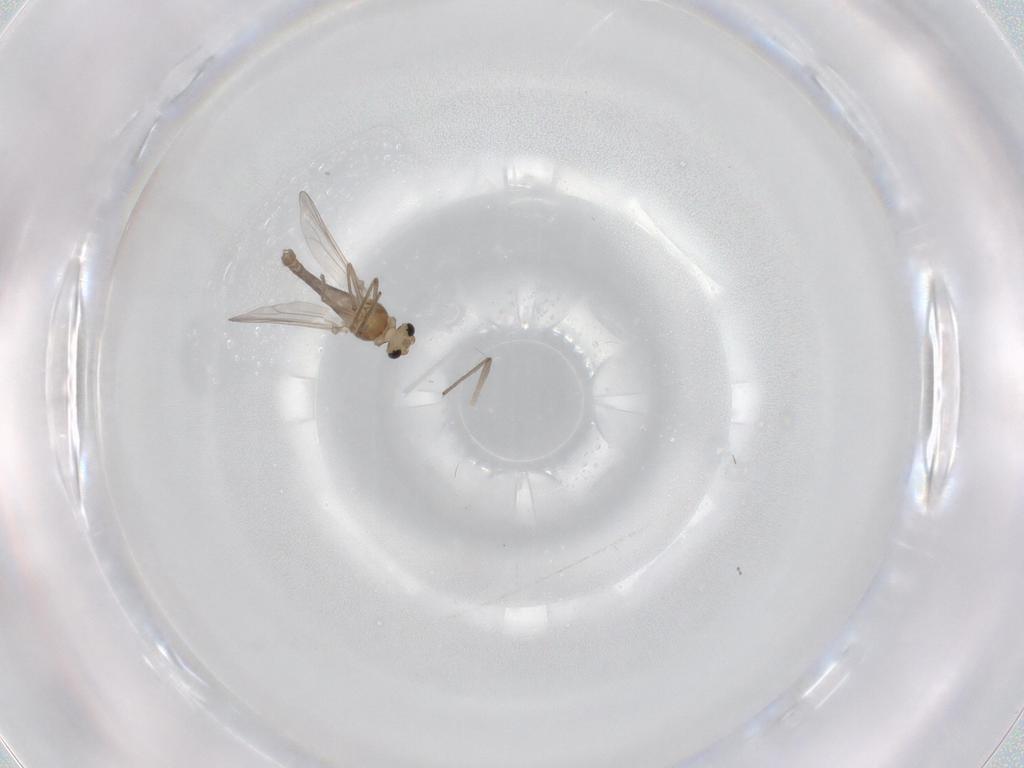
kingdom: Animalia
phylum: Arthropoda
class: Insecta
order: Diptera
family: Chironomidae
